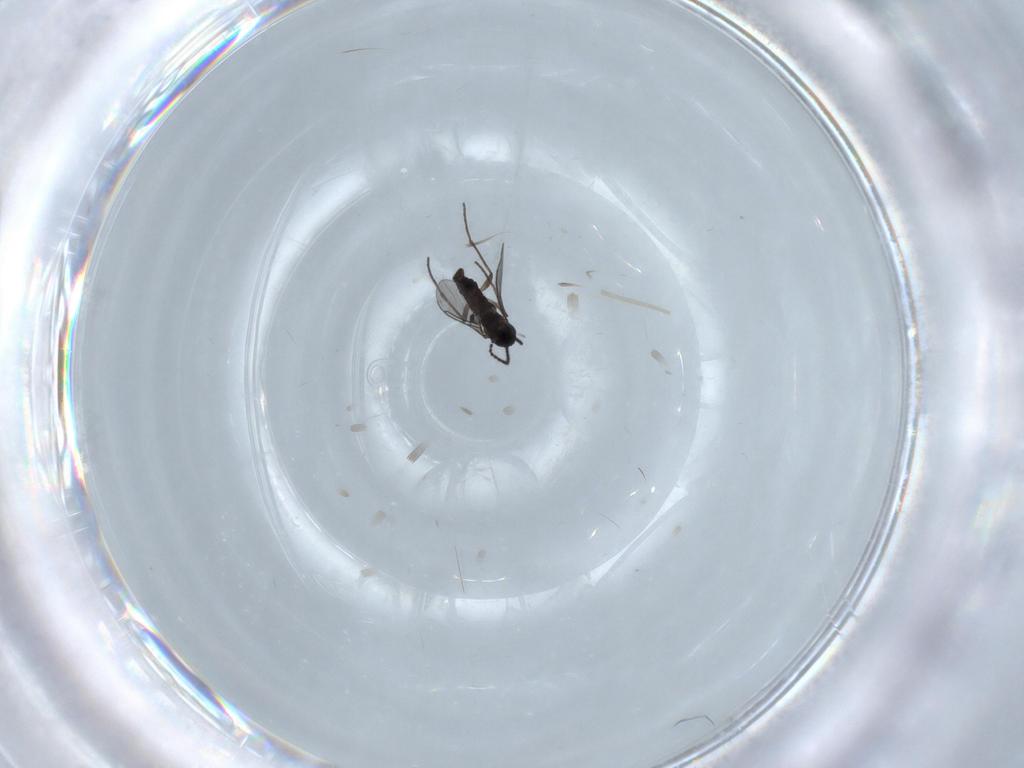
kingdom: Animalia
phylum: Arthropoda
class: Insecta
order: Diptera
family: Sciaridae
